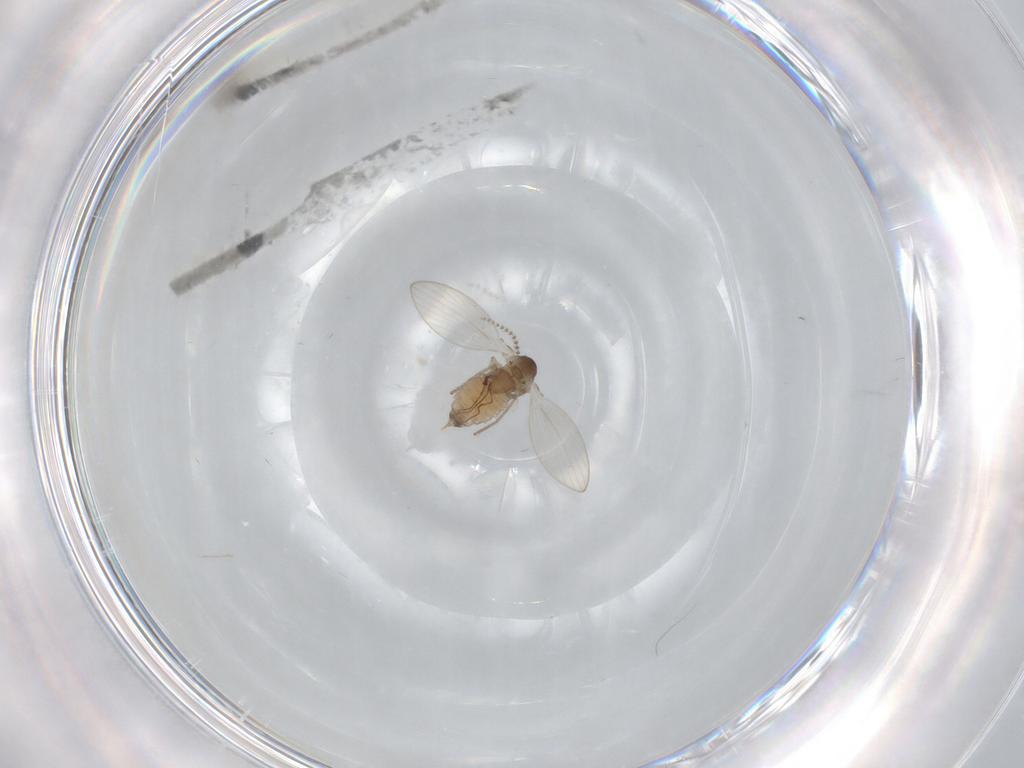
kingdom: Animalia
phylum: Arthropoda
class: Insecta
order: Diptera
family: Psychodidae
